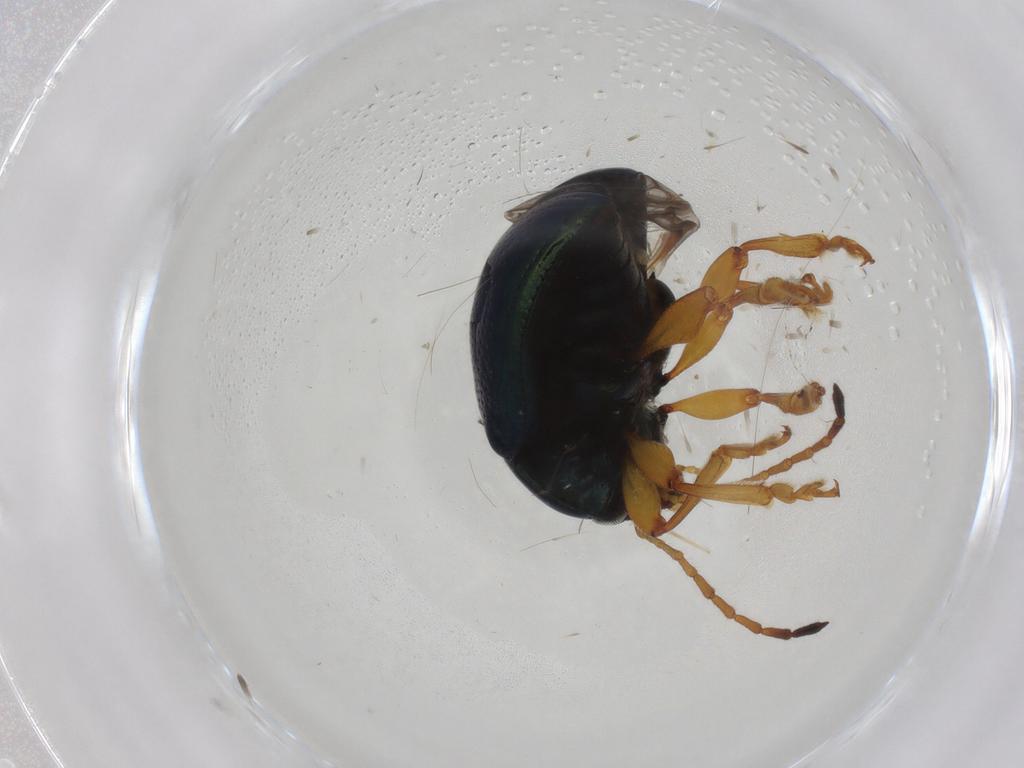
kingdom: Animalia
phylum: Arthropoda
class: Insecta
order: Coleoptera
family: Chrysomelidae
